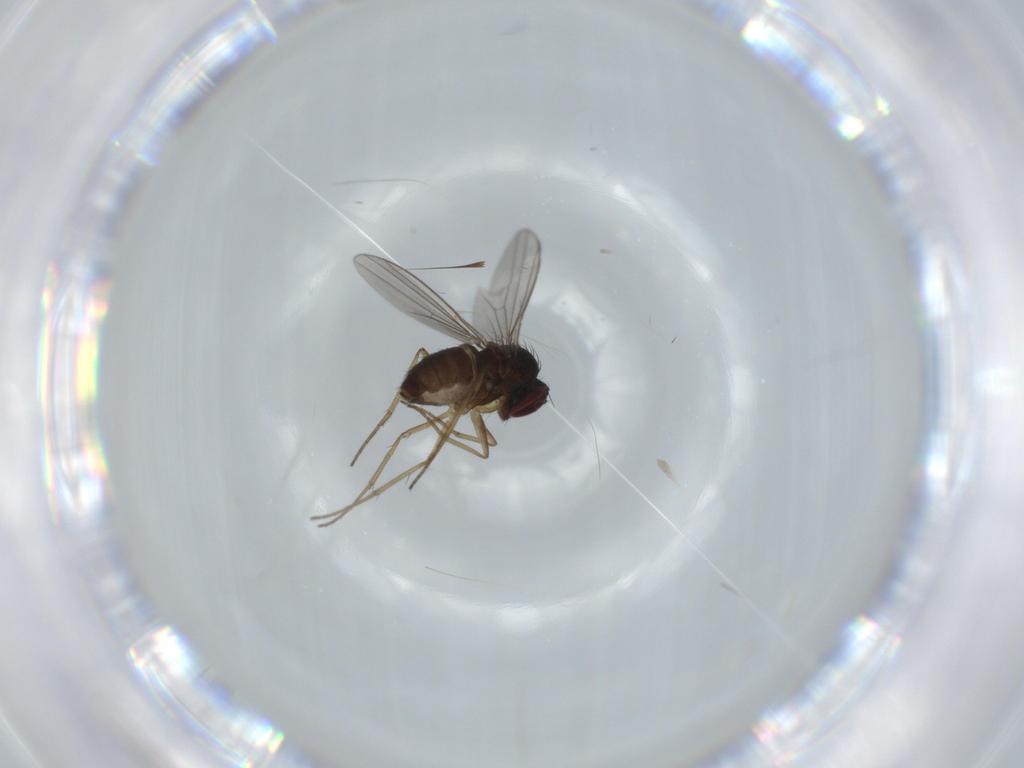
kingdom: Animalia
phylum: Arthropoda
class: Insecta
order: Diptera
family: Dolichopodidae
